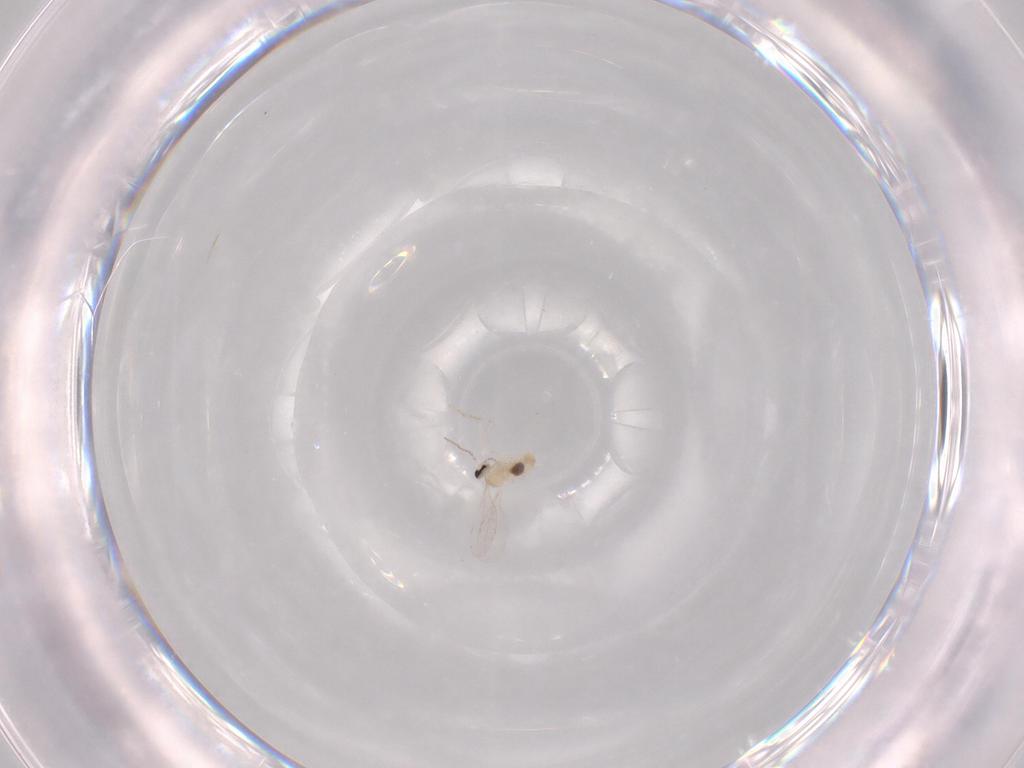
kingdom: Animalia
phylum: Arthropoda
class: Insecta
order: Diptera
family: Cecidomyiidae
